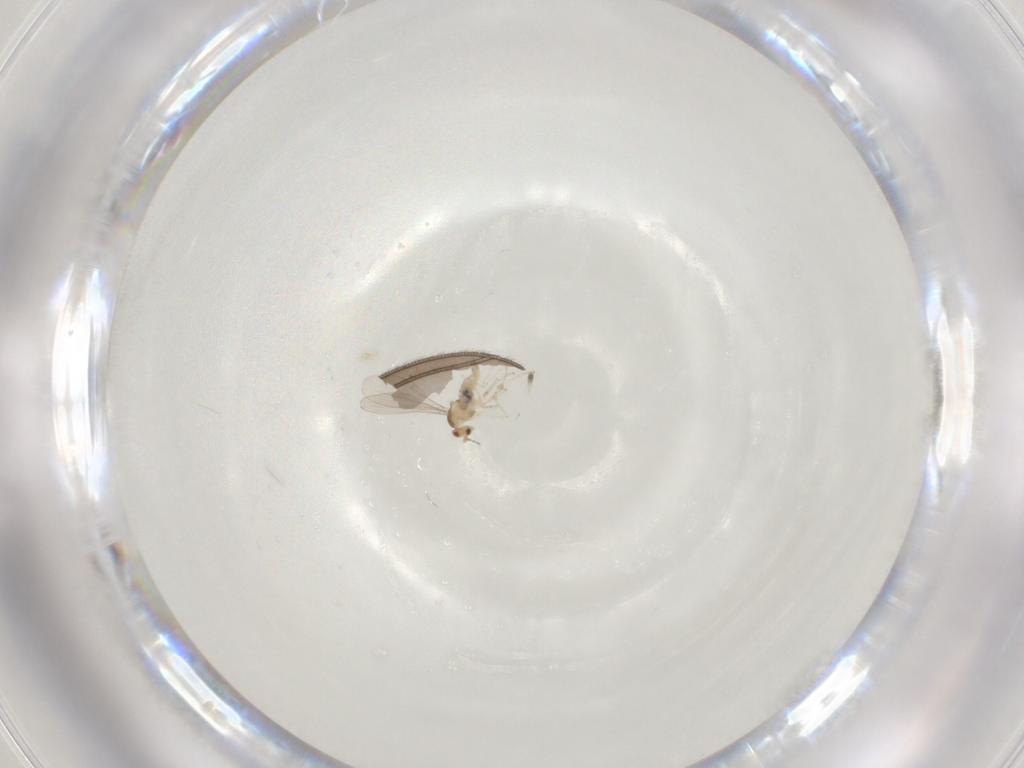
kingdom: Animalia
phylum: Arthropoda
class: Insecta
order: Diptera
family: Cecidomyiidae
